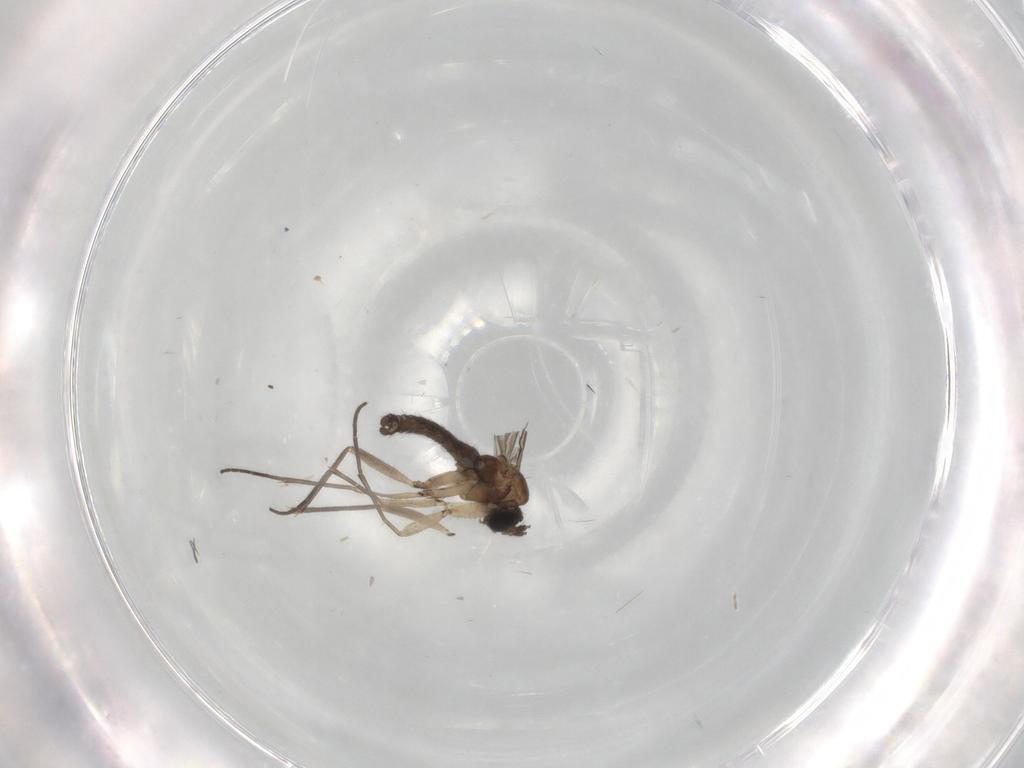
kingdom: Animalia
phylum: Arthropoda
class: Insecta
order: Diptera
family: Sciaridae
